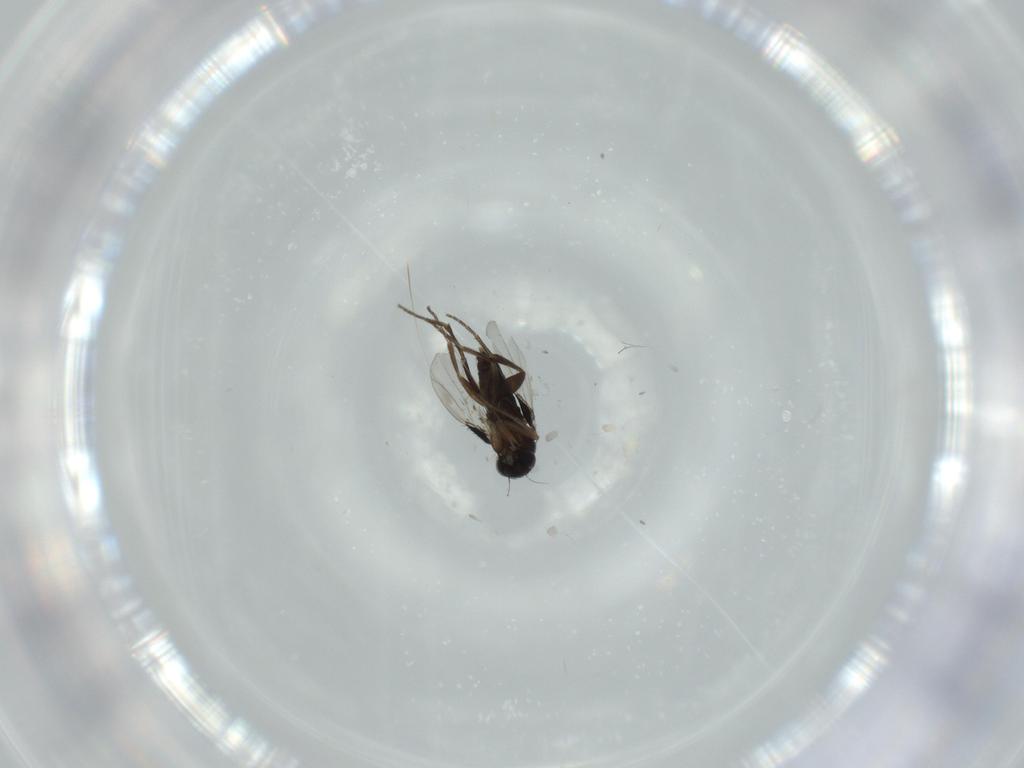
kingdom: Animalia
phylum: Arthropoda
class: Insecta
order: Diptera
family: Phoridae
